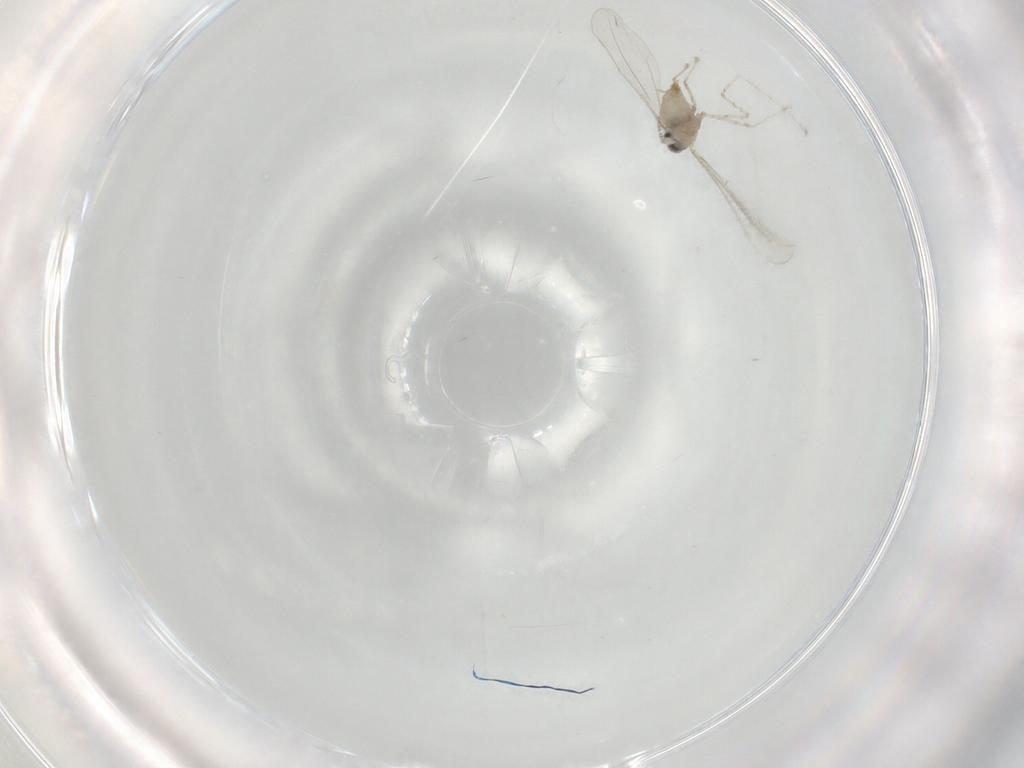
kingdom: Animalia
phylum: Arthropoda
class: Insecta
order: Diptera
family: Cecidomyiidae
